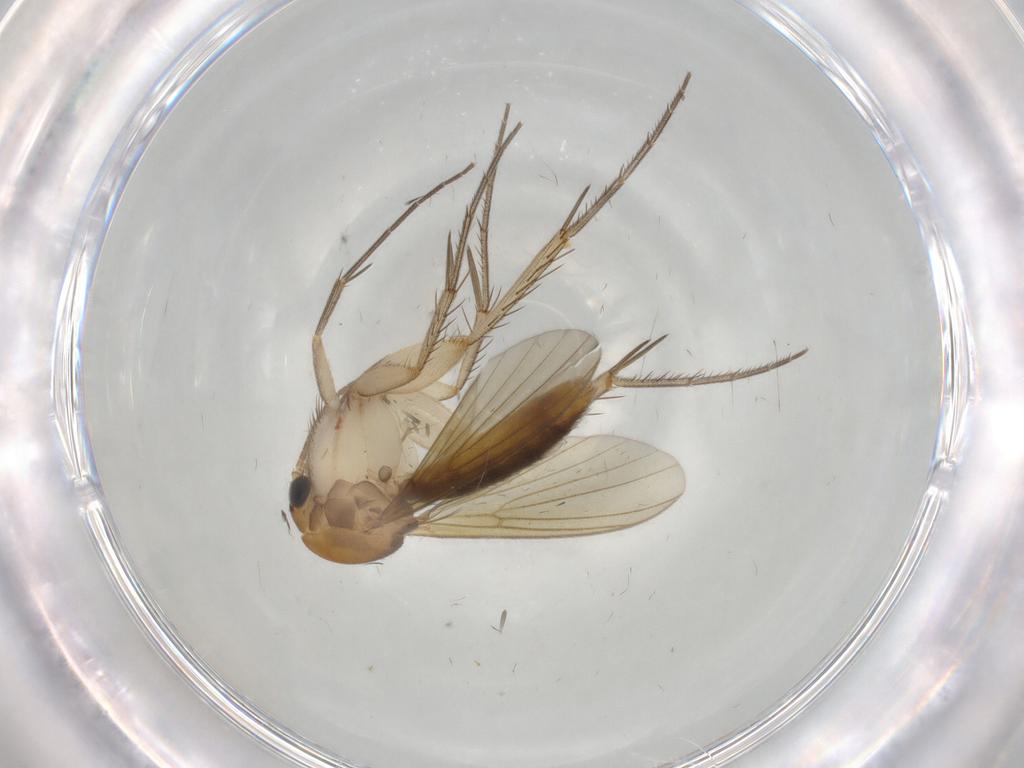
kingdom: Animalia
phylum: Arthropoda
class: Insecta
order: Diptera
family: Mycetophilidae
